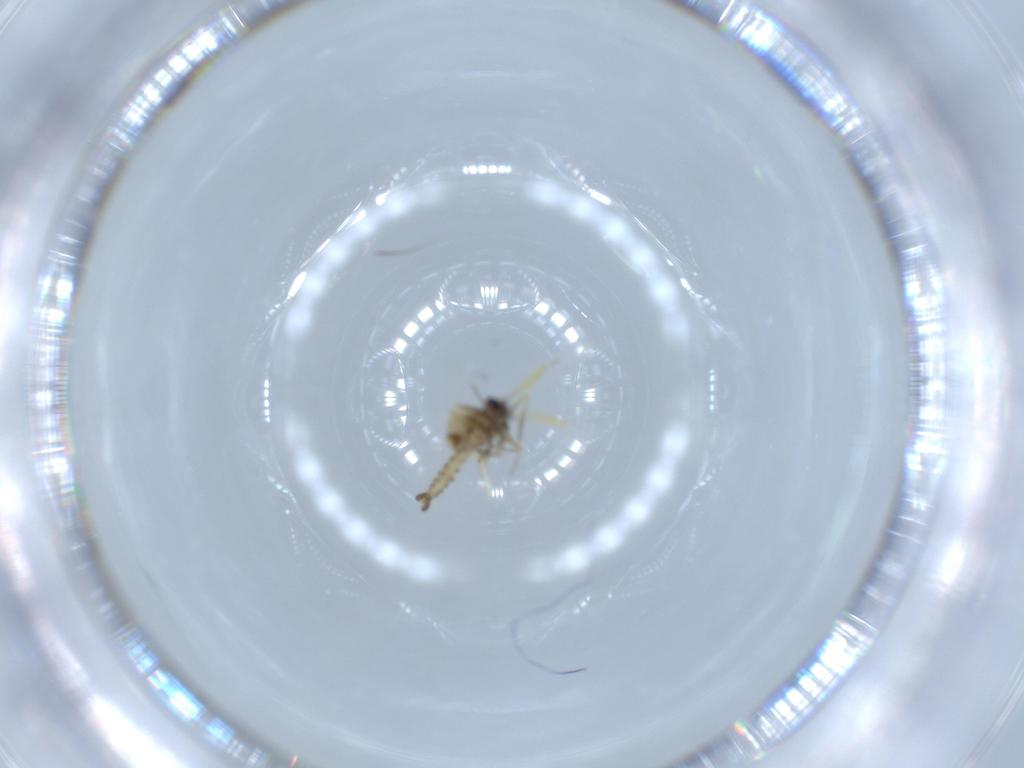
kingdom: Animalia
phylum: Arthropoda
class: Insecta
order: Diptera
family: Ceratopogonidae
